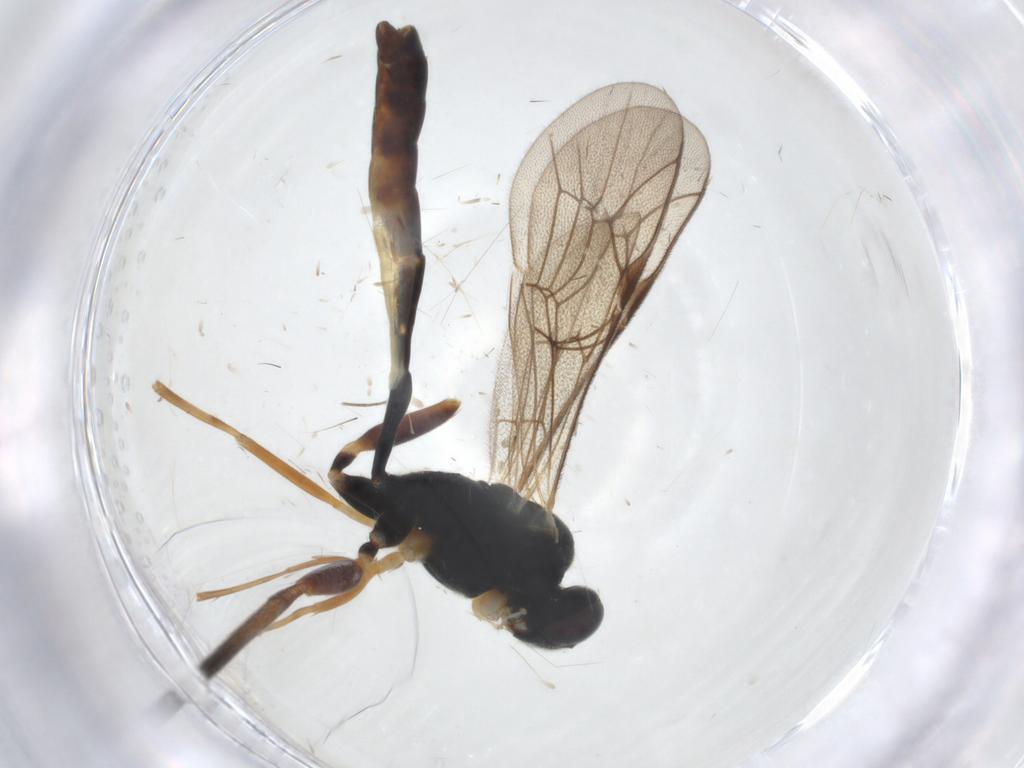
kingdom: Animalia
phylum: Arthropoda
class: Insecta
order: Hymenoptera
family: Ichneumonidae
